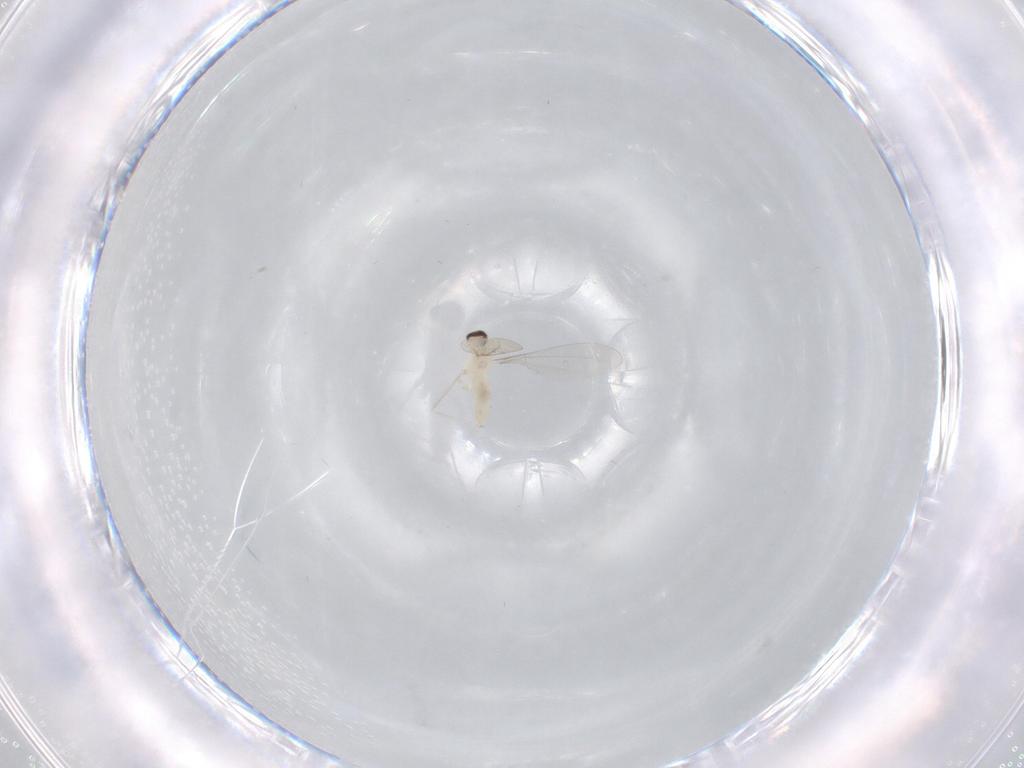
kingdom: Animalia
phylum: Arthropoda
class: Insecta
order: Diptera
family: Cecidomyiidae
